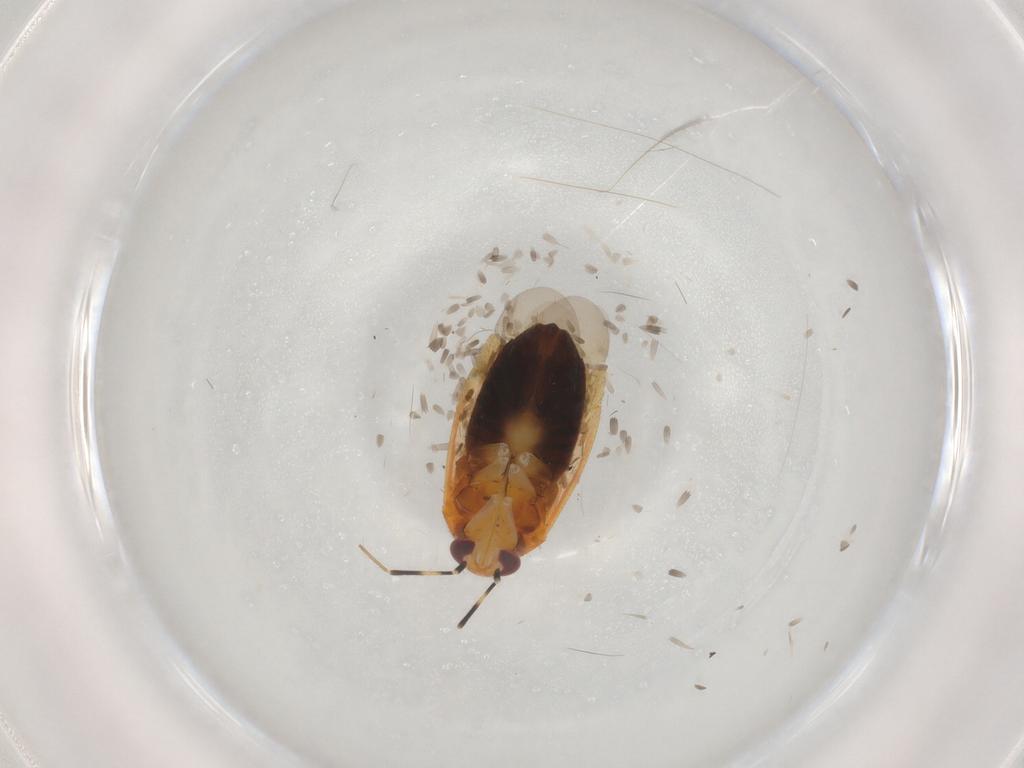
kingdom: Animalia
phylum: Arthropoda
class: Insecta
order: Hemiptera
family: Miridae
